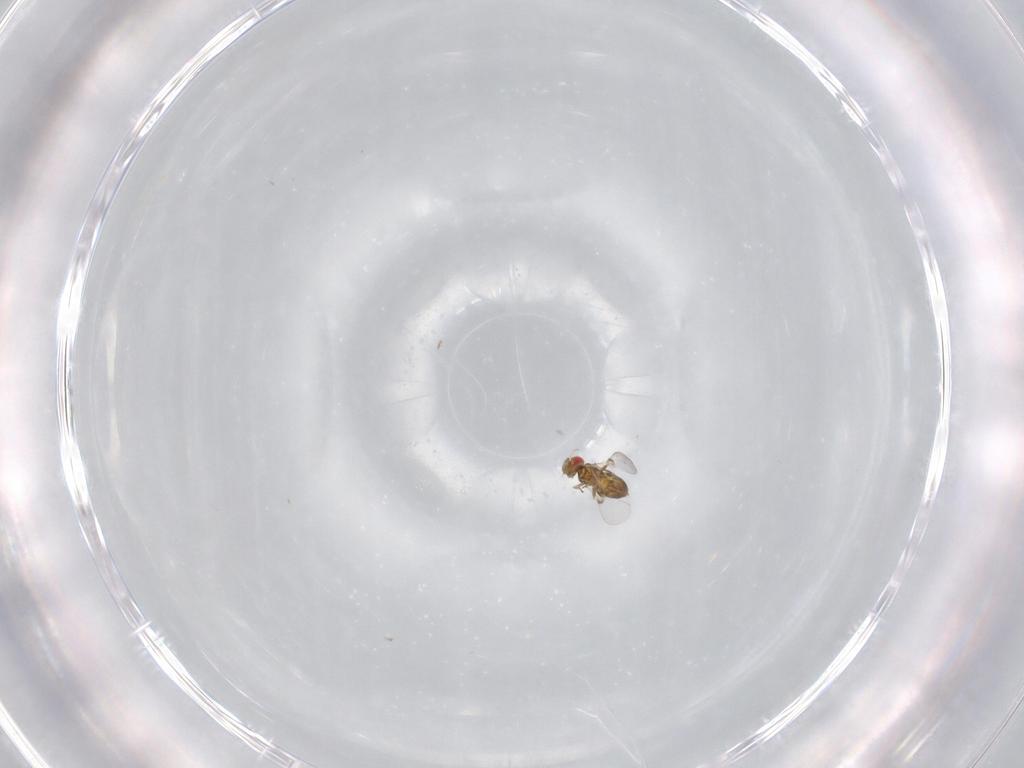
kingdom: Animalia
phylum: Arthropoda
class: Insecta
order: Hymenoptera
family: Trichogrammatidae
